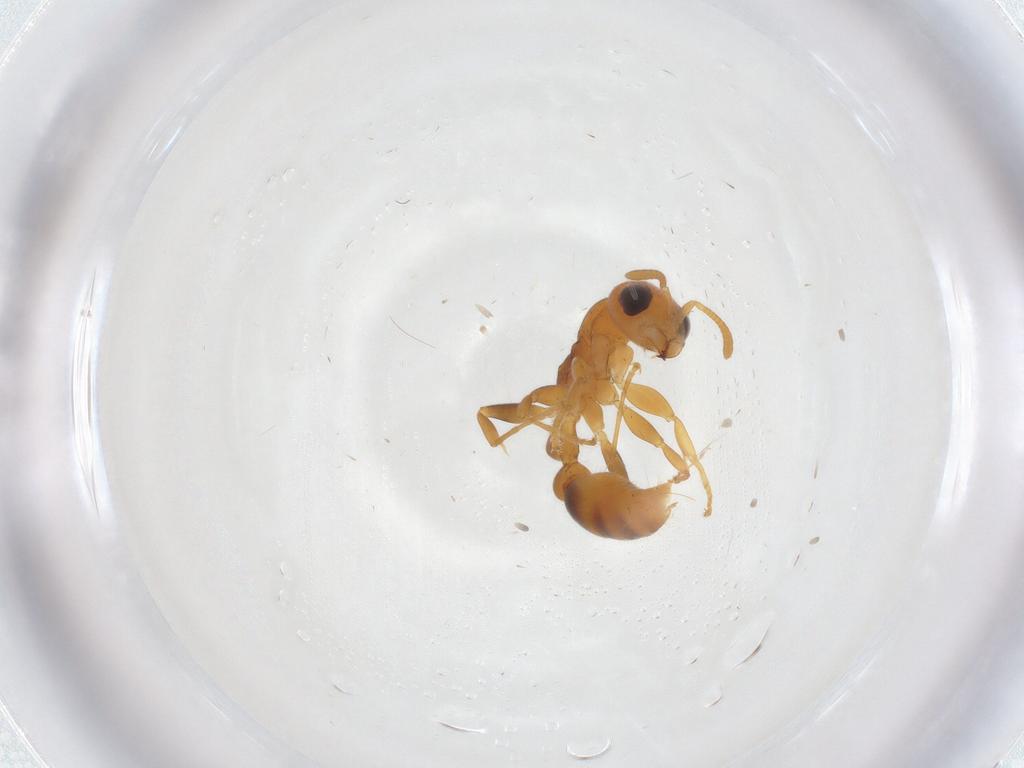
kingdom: Animalia
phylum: Arthropoda
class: Insecta
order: Hymenoptera
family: Formicidae
